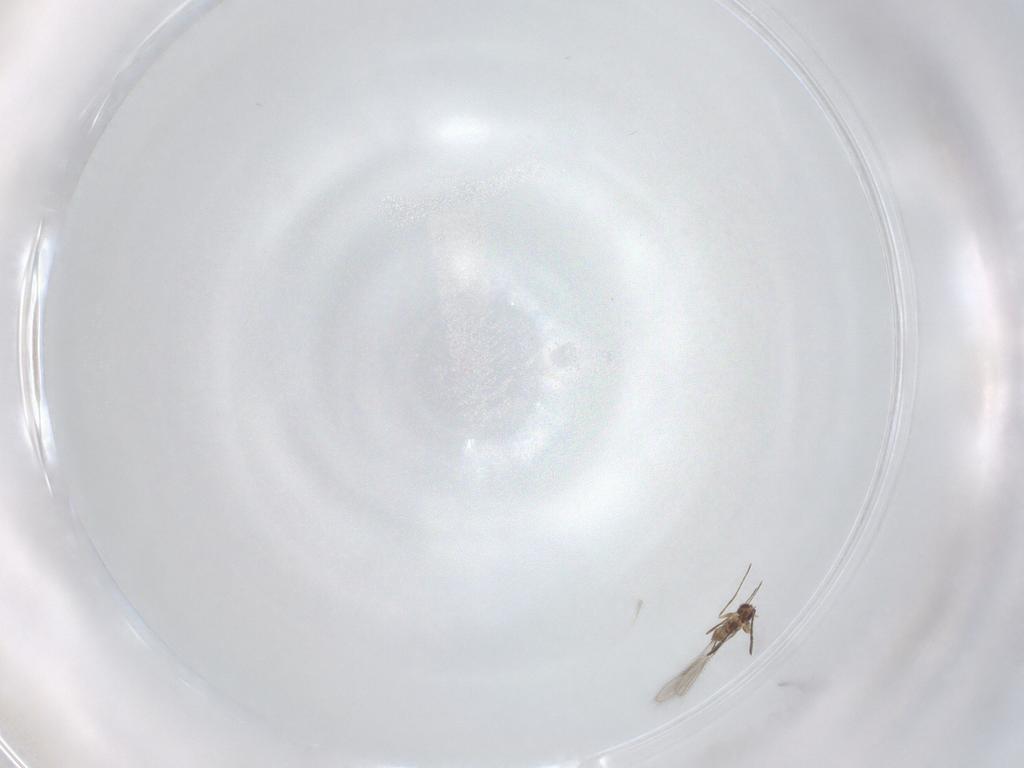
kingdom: Animalia
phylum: Arthropoda
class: Insecta
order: Hymenoptera
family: Mymaridae
